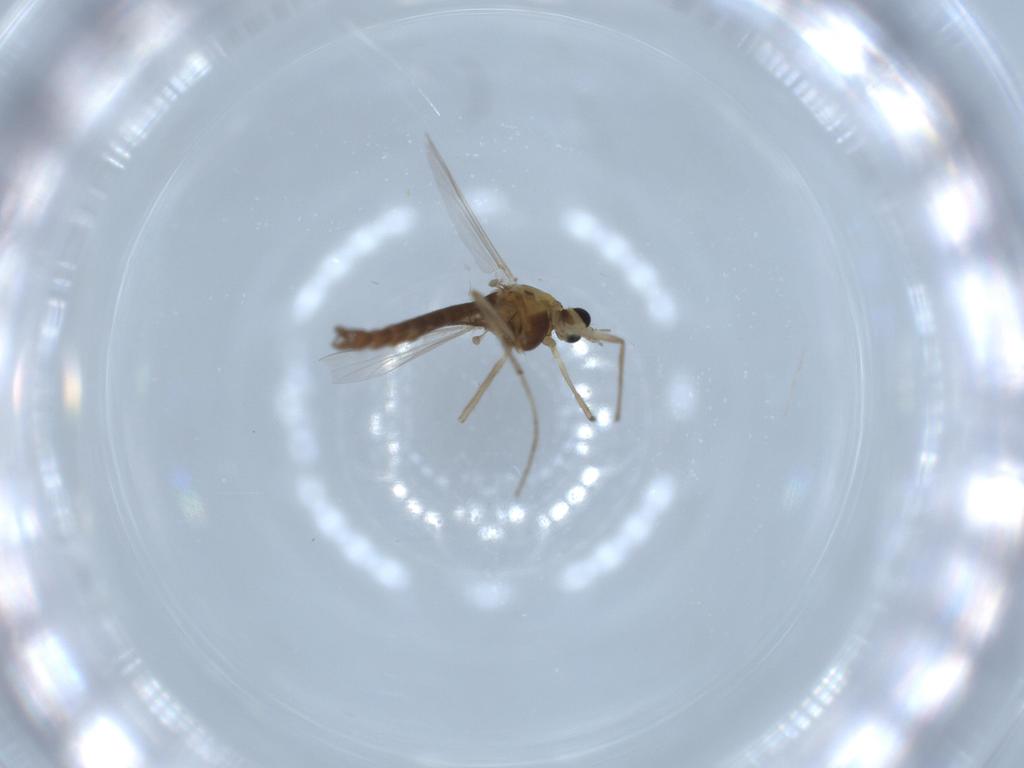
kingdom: Animalia
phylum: Arthropoda
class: Insecta
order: Diptera
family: Chironomidae
